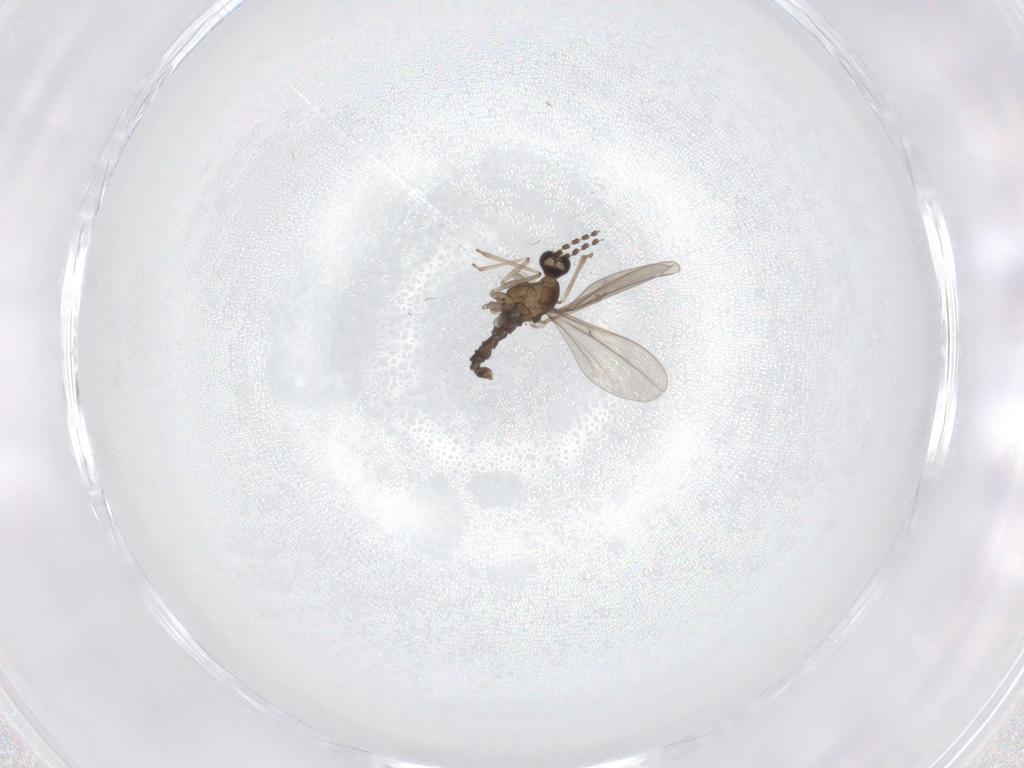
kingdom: Animalia
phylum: Arthropoda
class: Insecta
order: Diptera
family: Cecidomyiidae
